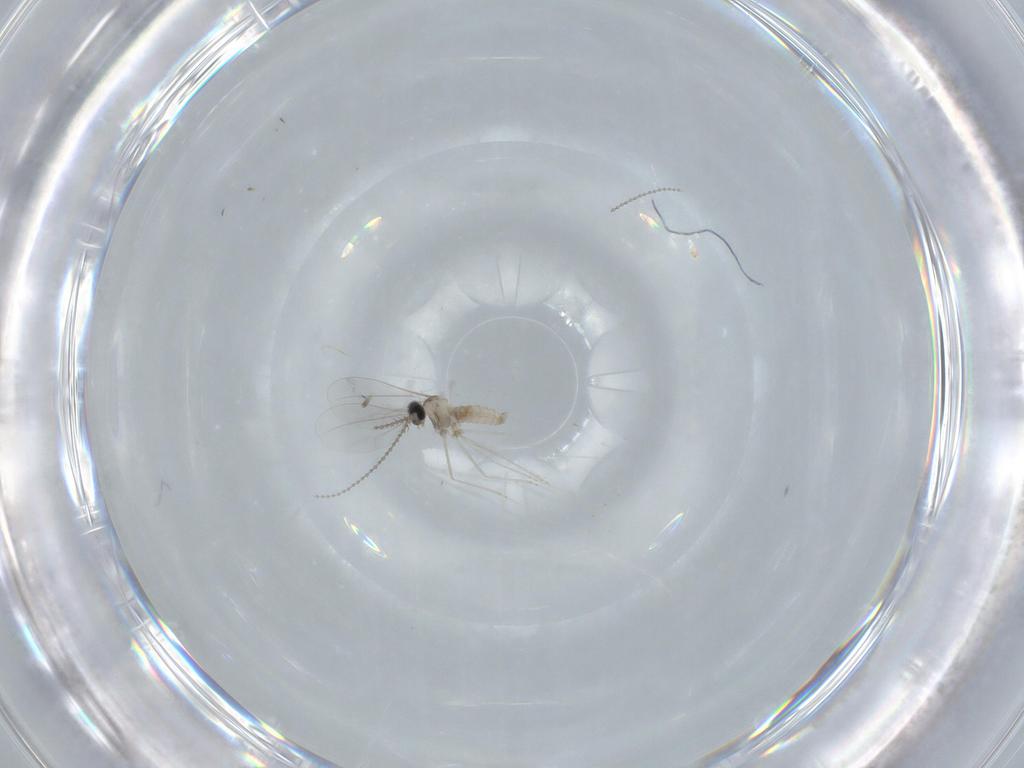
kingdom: Animalia
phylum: Arthropoda
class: Insecta
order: Diptera
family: Cecidomyiidae
